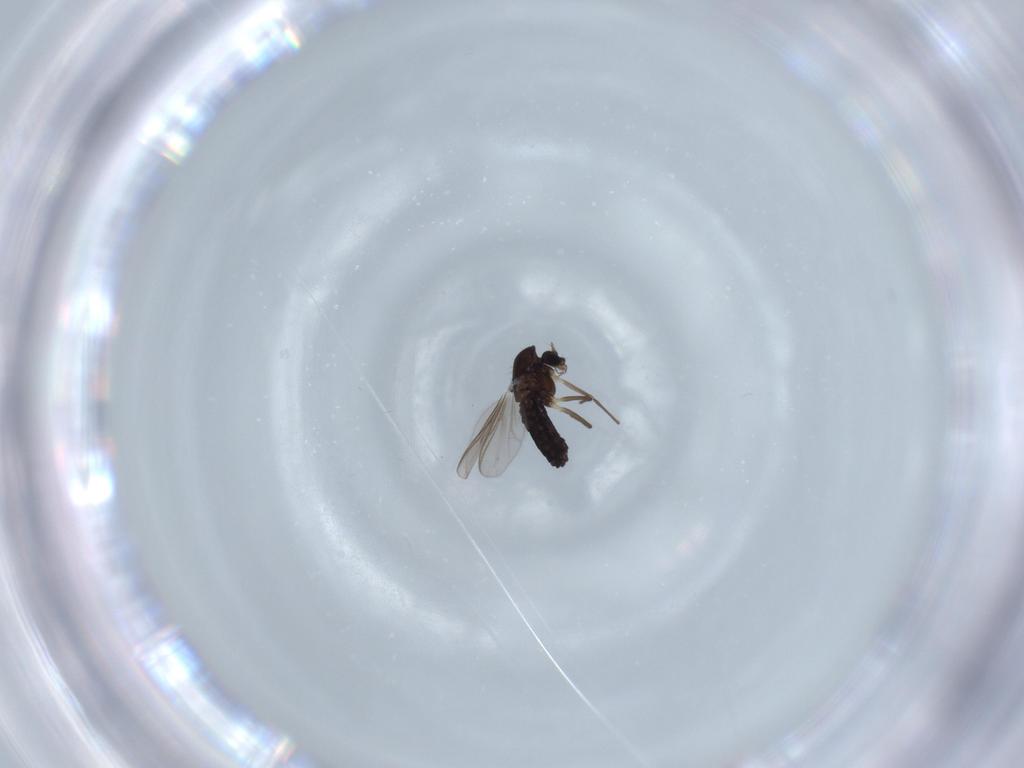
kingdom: Animalia
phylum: Arthropoda
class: Insecta
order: Diptera
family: Chironomidae
